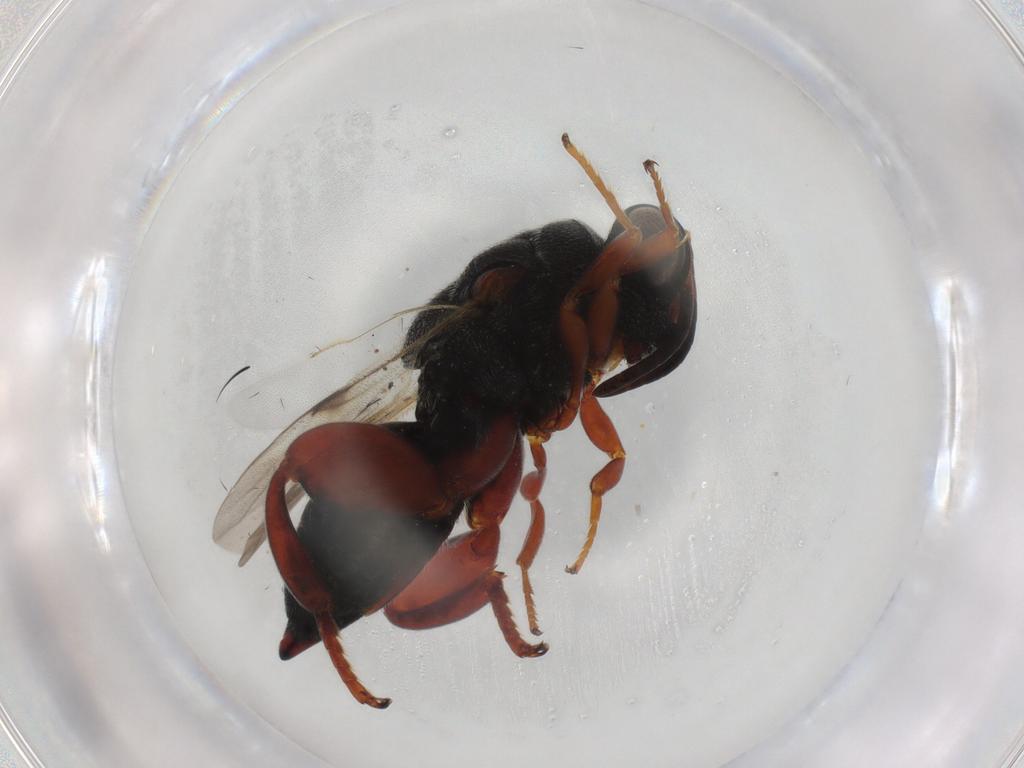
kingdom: Animalia
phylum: Arthropoda
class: Insecta
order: Hymenoptera
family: Chalcididae
